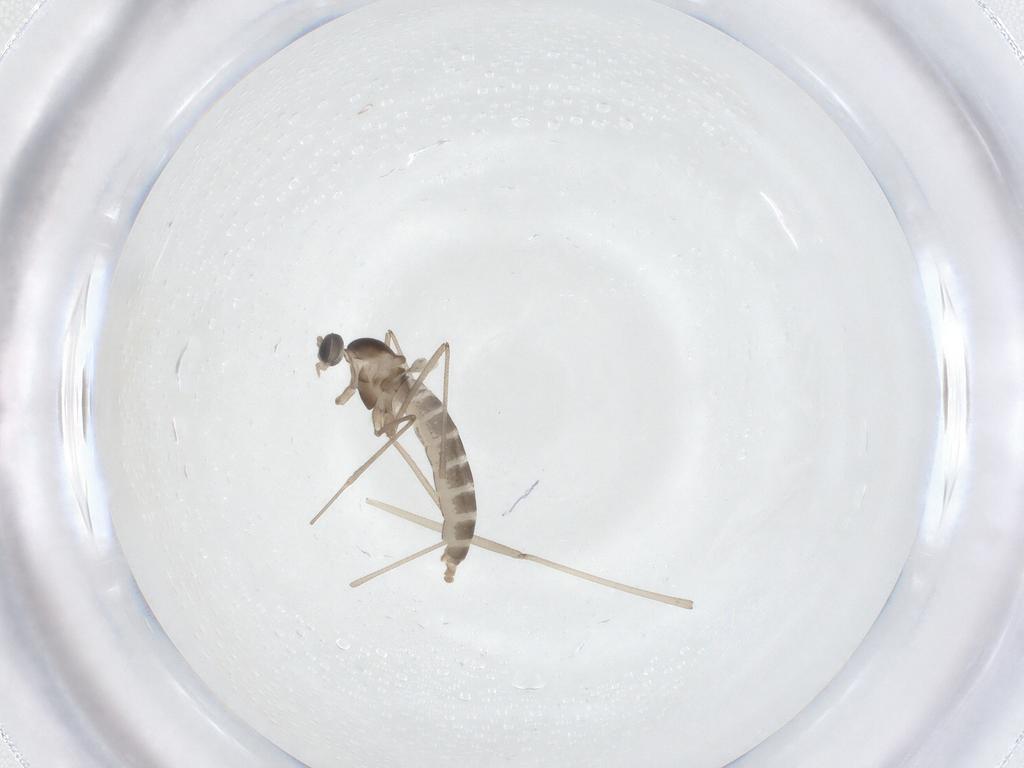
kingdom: Animalia
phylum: Arthropoda
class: Insecta
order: Diptera
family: Cecidomyiidae
